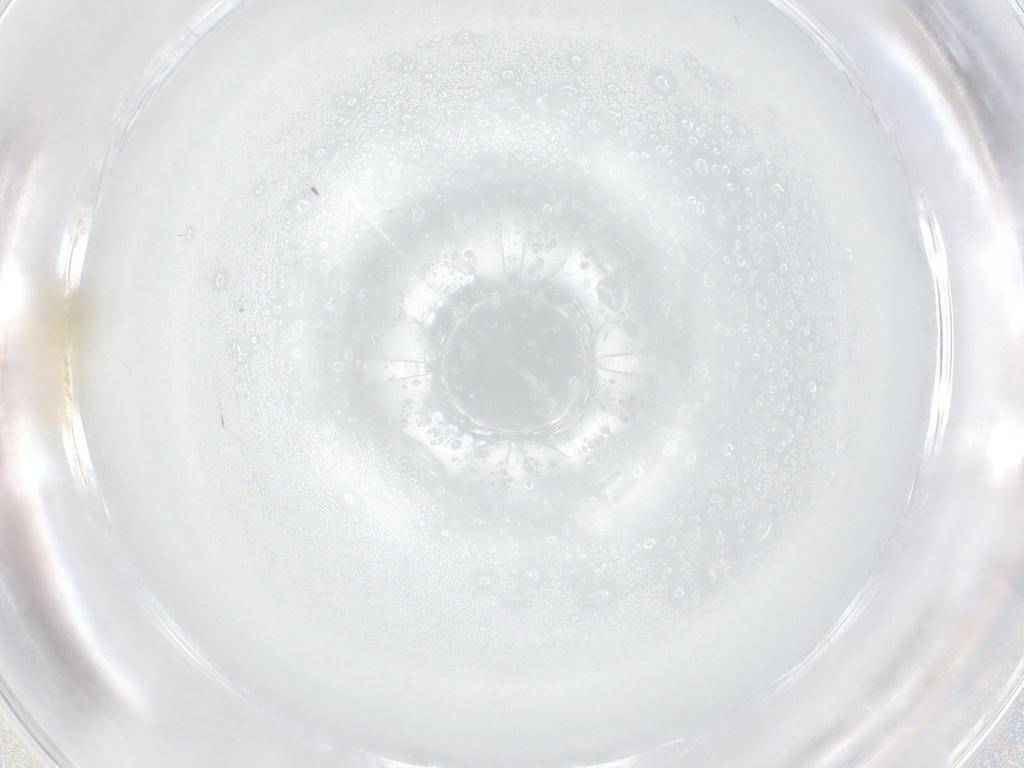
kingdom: Animalia
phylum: Arthropoda
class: Insecta
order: Diptera
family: Chironomidae
